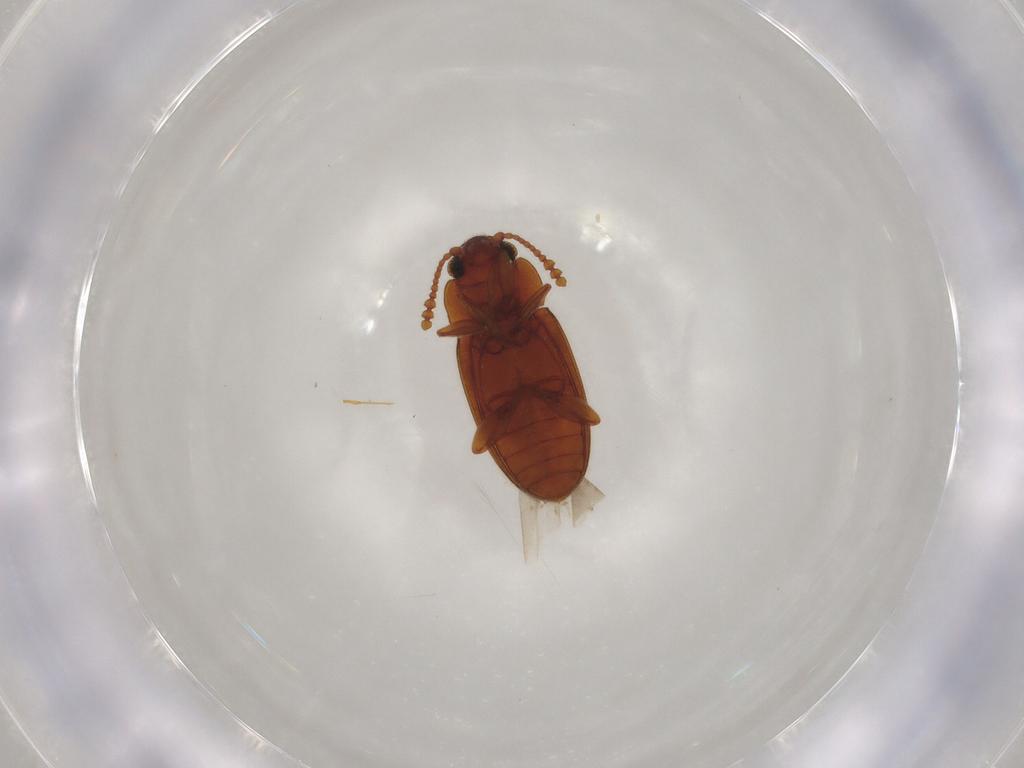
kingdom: Animalia
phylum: Arthropoda
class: Insecta
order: Coleoptera
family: Erotylidae
